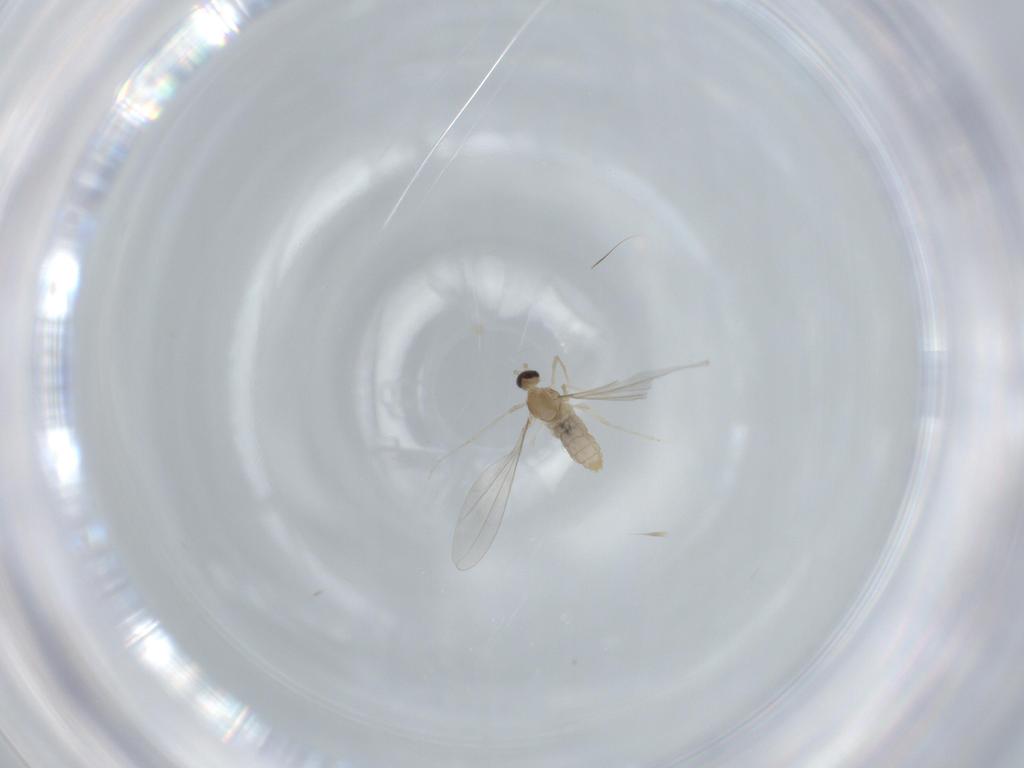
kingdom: Animalia
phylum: Arthropoda
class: Insecta
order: Diptera
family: Cecidomyiidae
